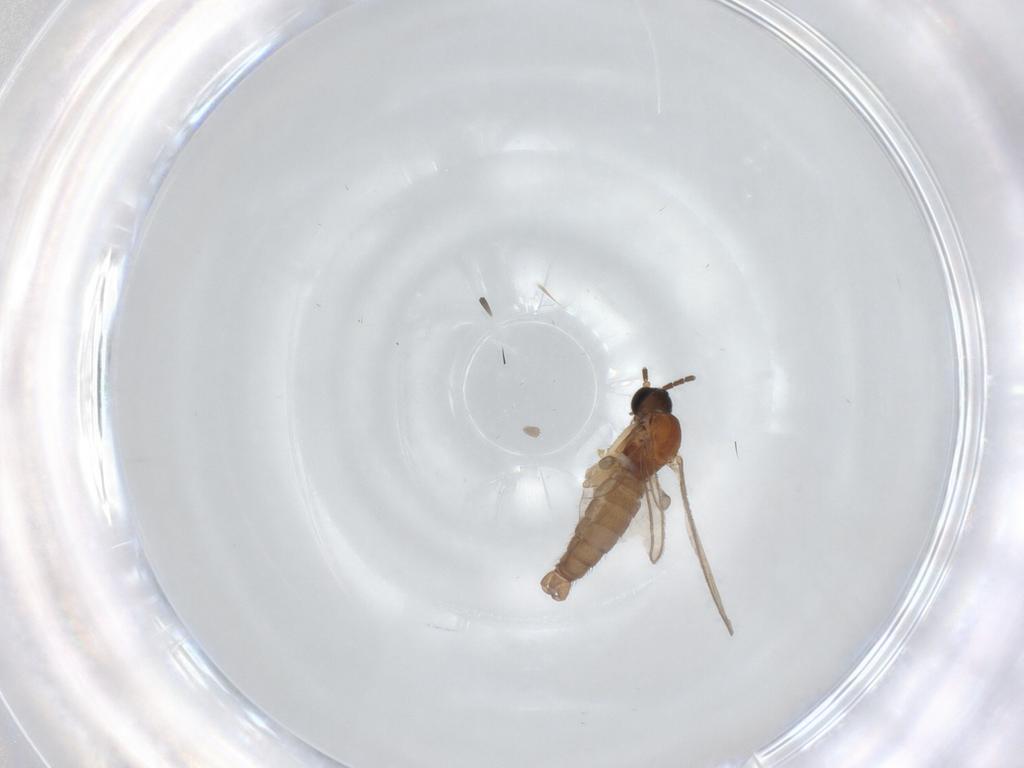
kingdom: Animalia
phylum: Arthropoda
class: Insecta
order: Diptera
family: Sciaridae
